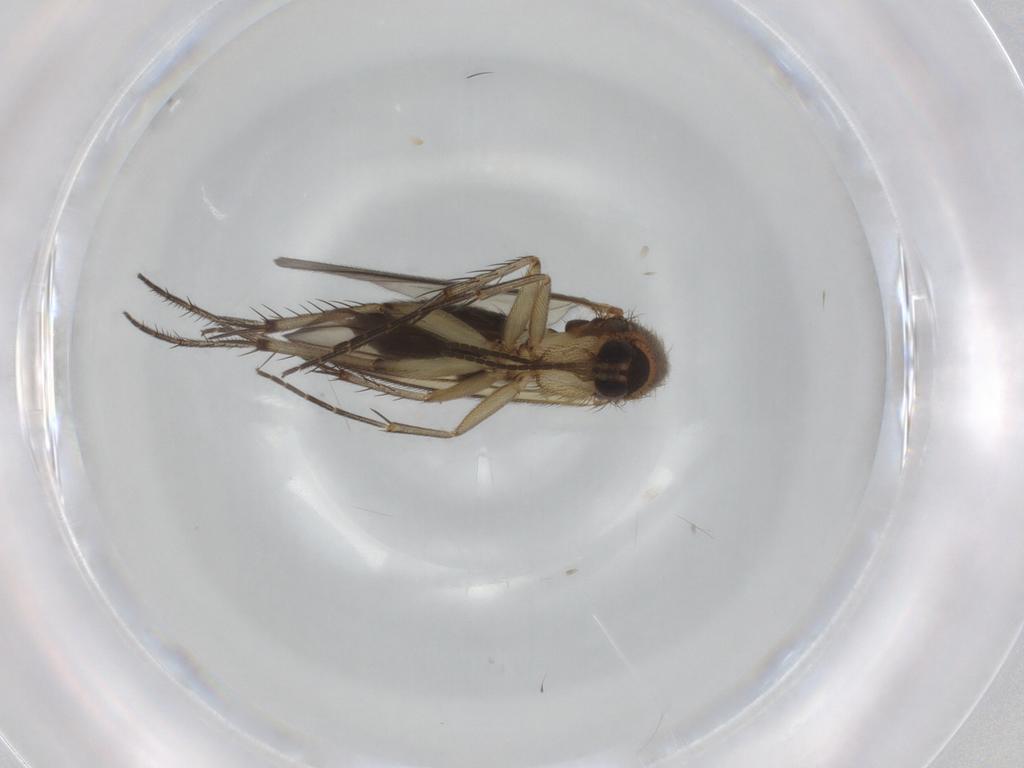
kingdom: Animalia
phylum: Arthropoda
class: Insecta
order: Diptera
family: Mycetophilidae
